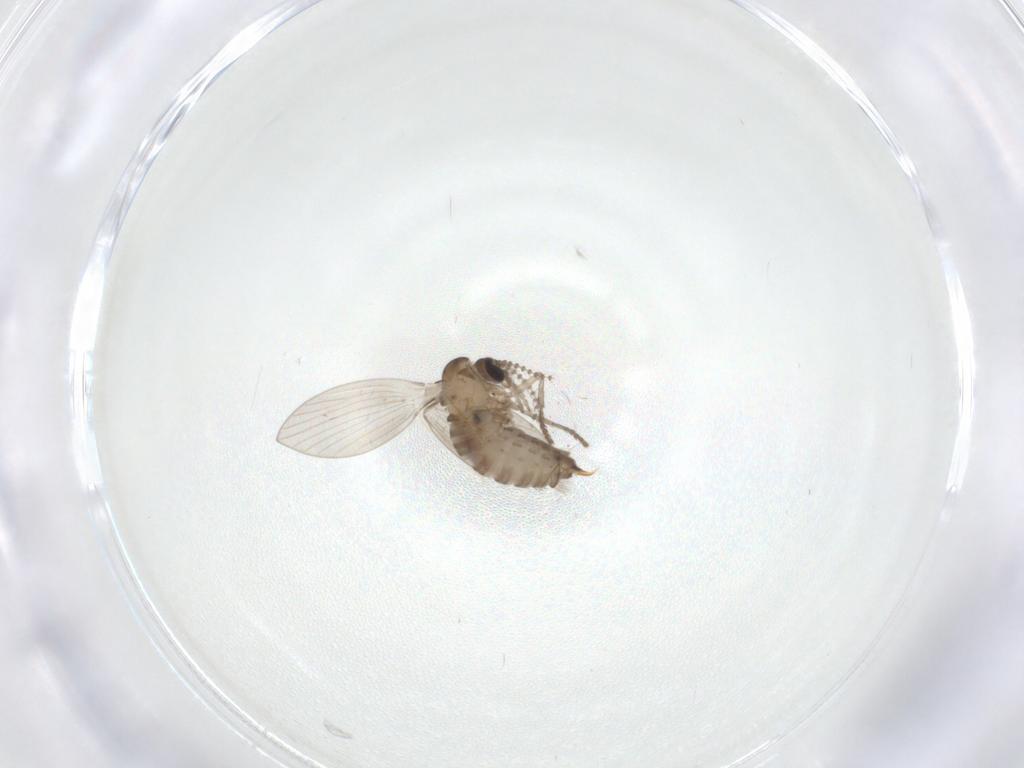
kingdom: Animalia
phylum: Arthropoda
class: Insecta
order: Diptera
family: Psychodidae
